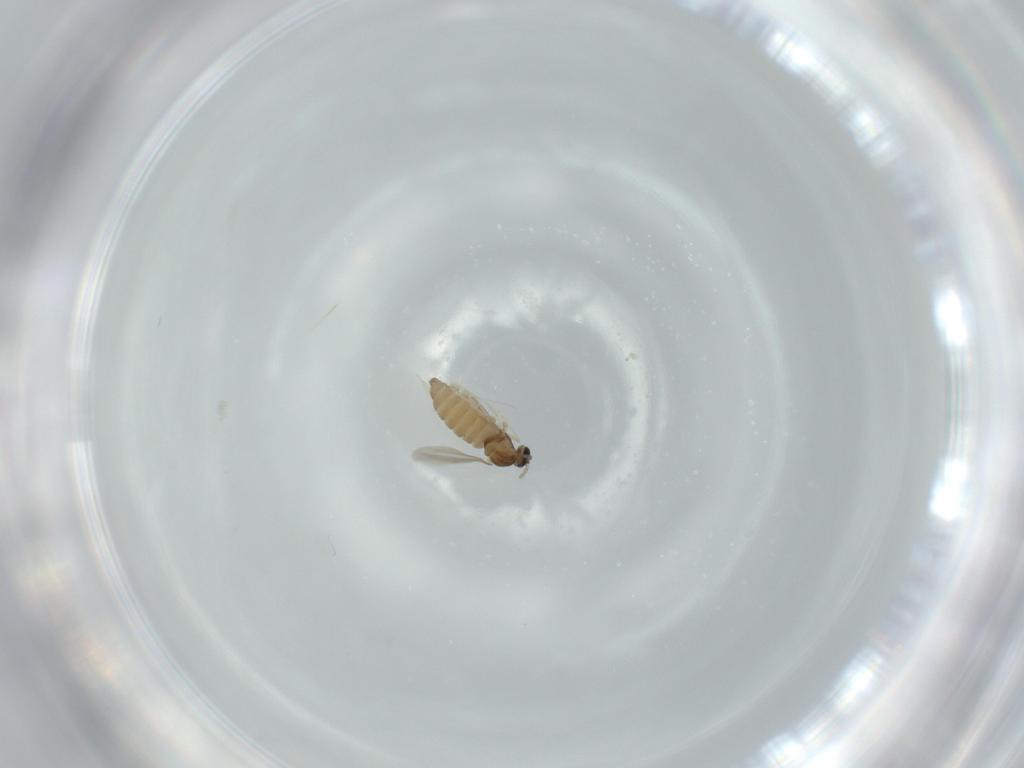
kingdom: Animalia
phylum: Arthropoda
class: Insecta
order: Diptera
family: Cecidomyiidae
